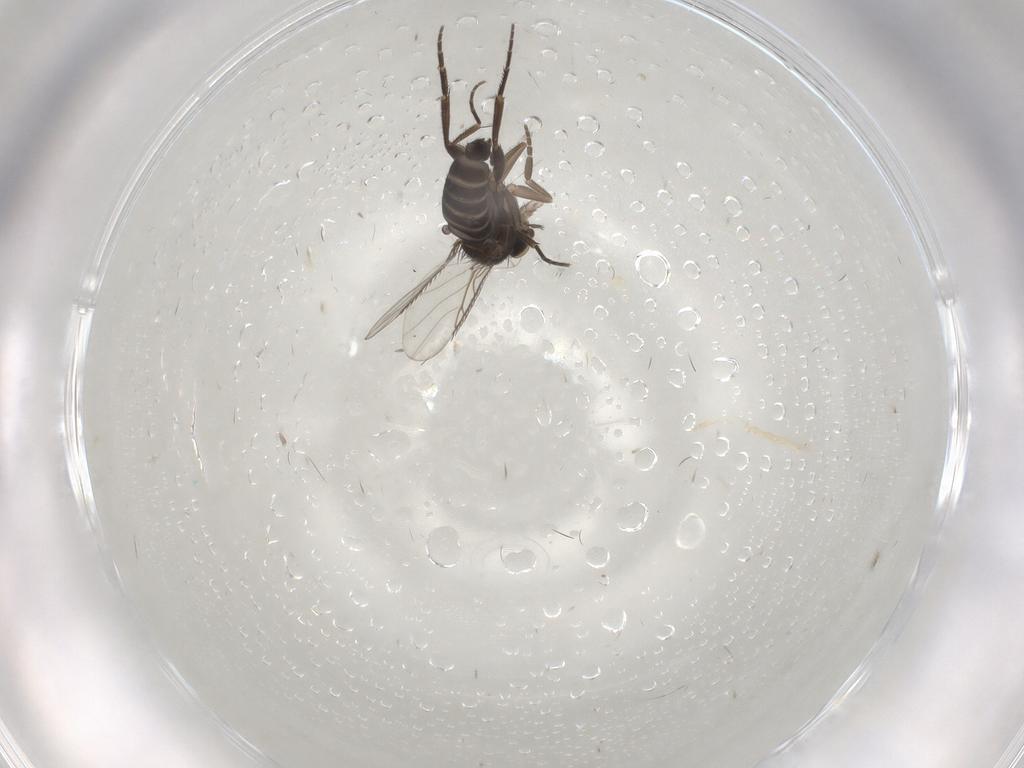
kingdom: Animalia
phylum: Arthropoda
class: Insecta
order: Diptera
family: Phoridae
